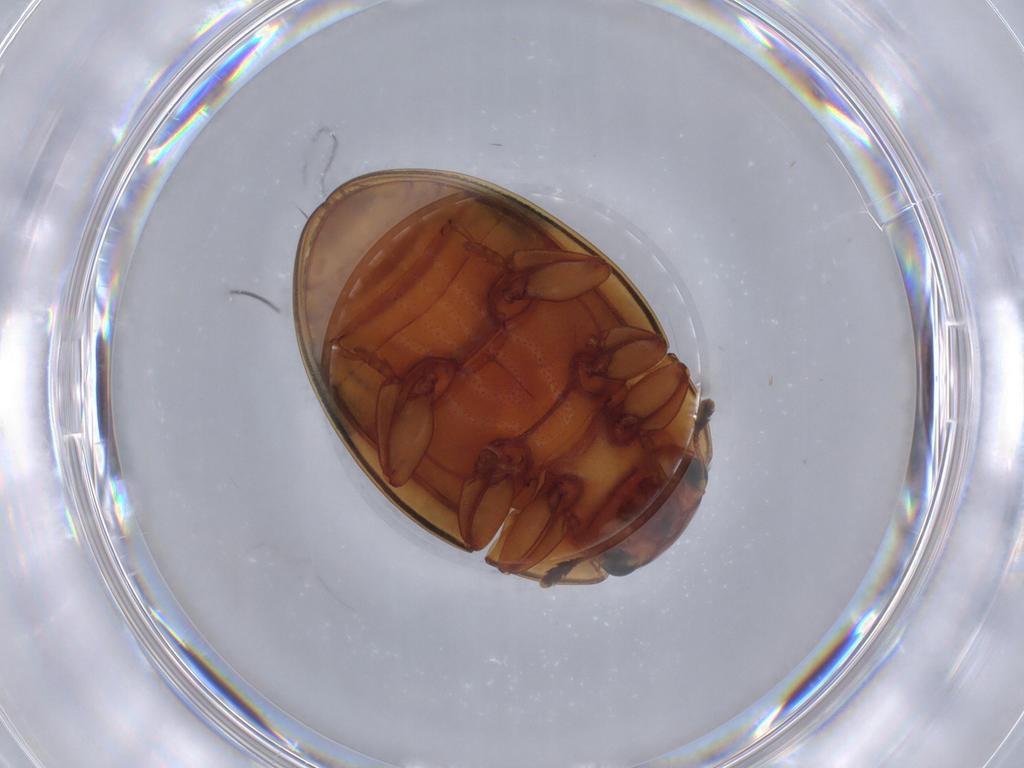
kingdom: Animalia
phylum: Arthropoda
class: Insecta
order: Coleoptera
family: Erotylidae
